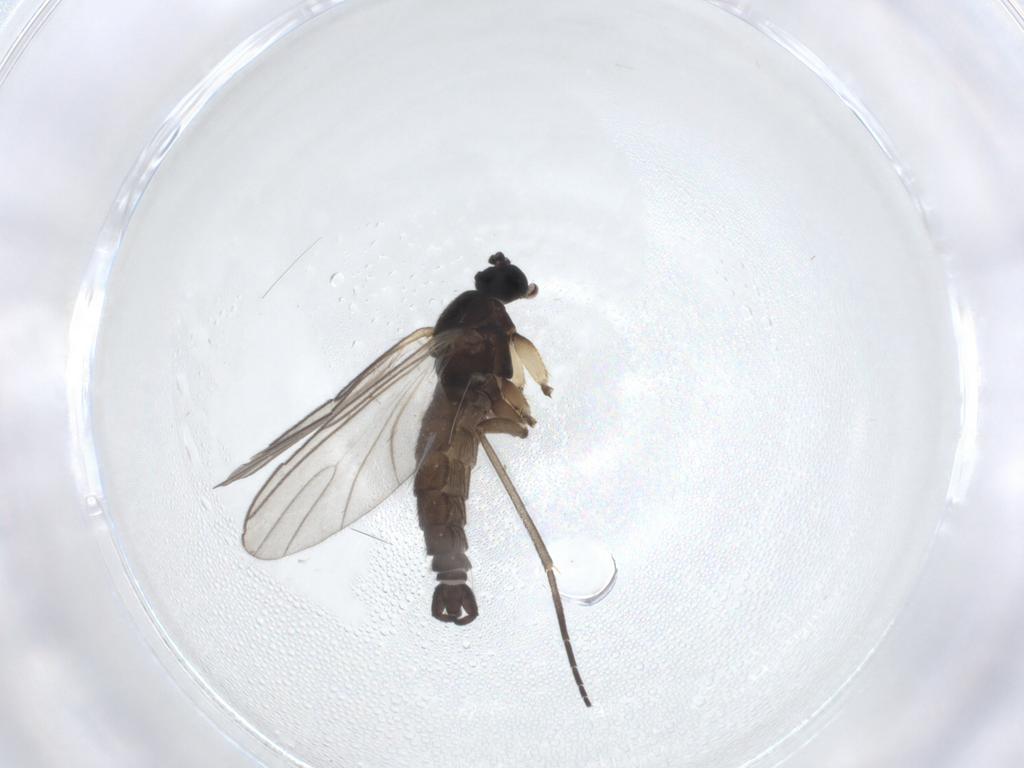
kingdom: Animalia
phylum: Arthropoda
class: Insecta
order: Diptera
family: Sciaridae
